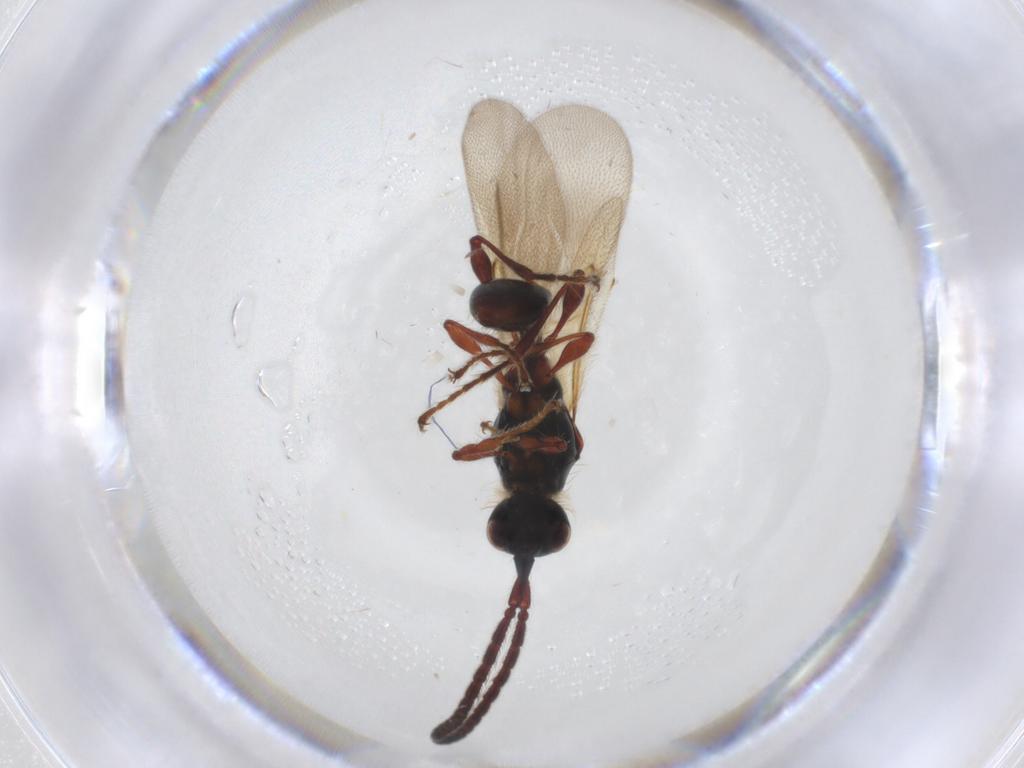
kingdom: Animalia
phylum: Arthropoda
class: Insecta
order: Hymenoptera
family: Diapriidae
